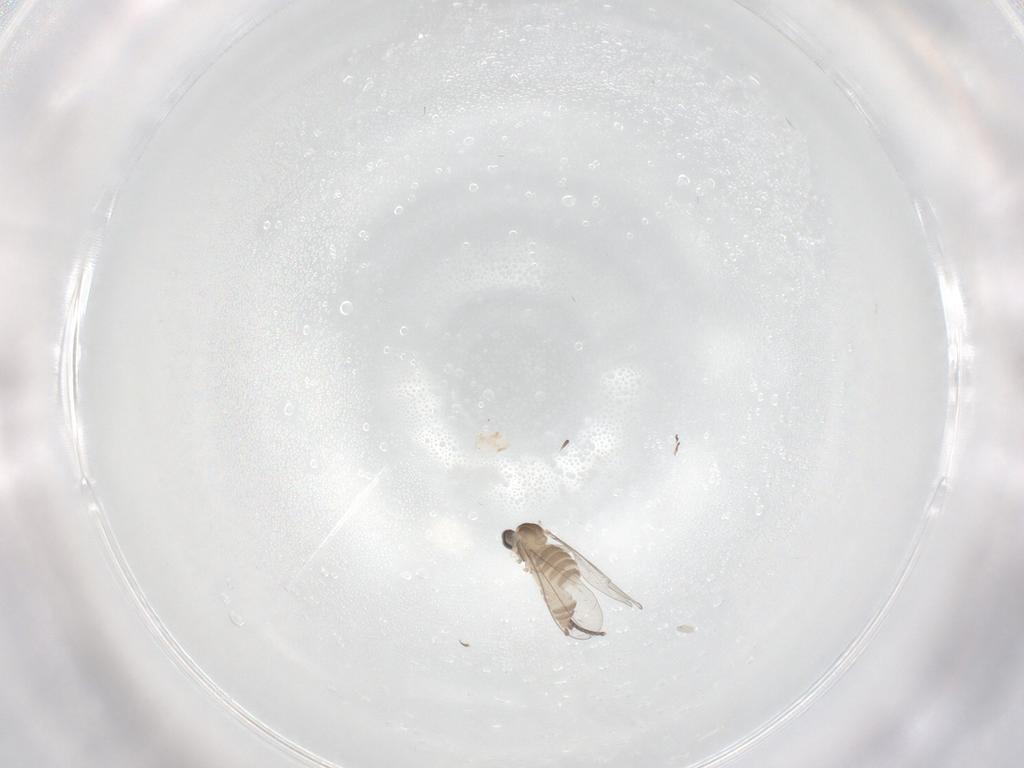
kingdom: Animalia
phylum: Arthropoda
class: Insecta
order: Diptera
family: Cecidomyiidae
